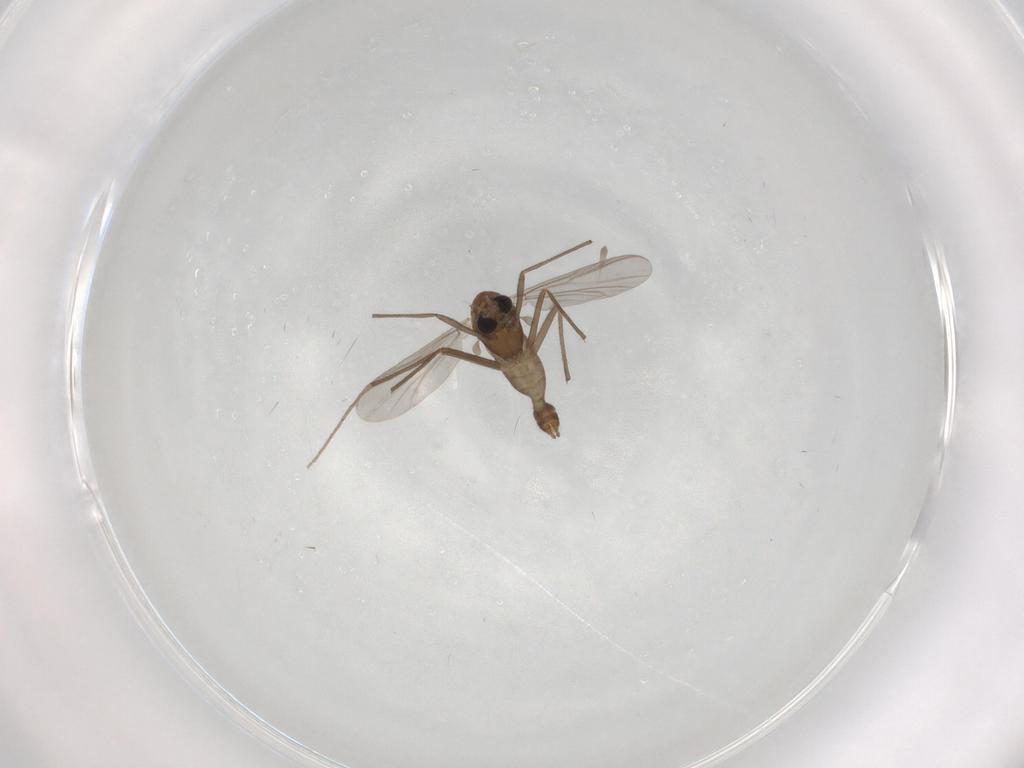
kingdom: Animalia
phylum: Arthropoda
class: Insecta
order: Diptera
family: Chironomidae
